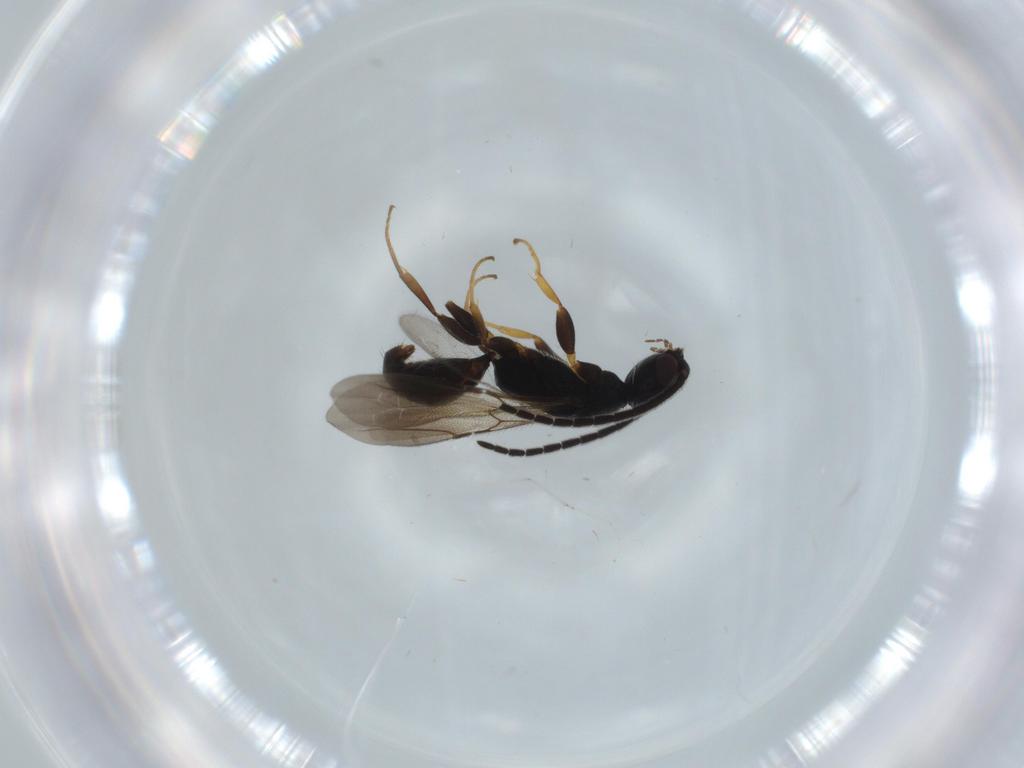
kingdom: Animalia
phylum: Arthropoda
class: Insecta
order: Hymenoptera
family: Bethylidae
